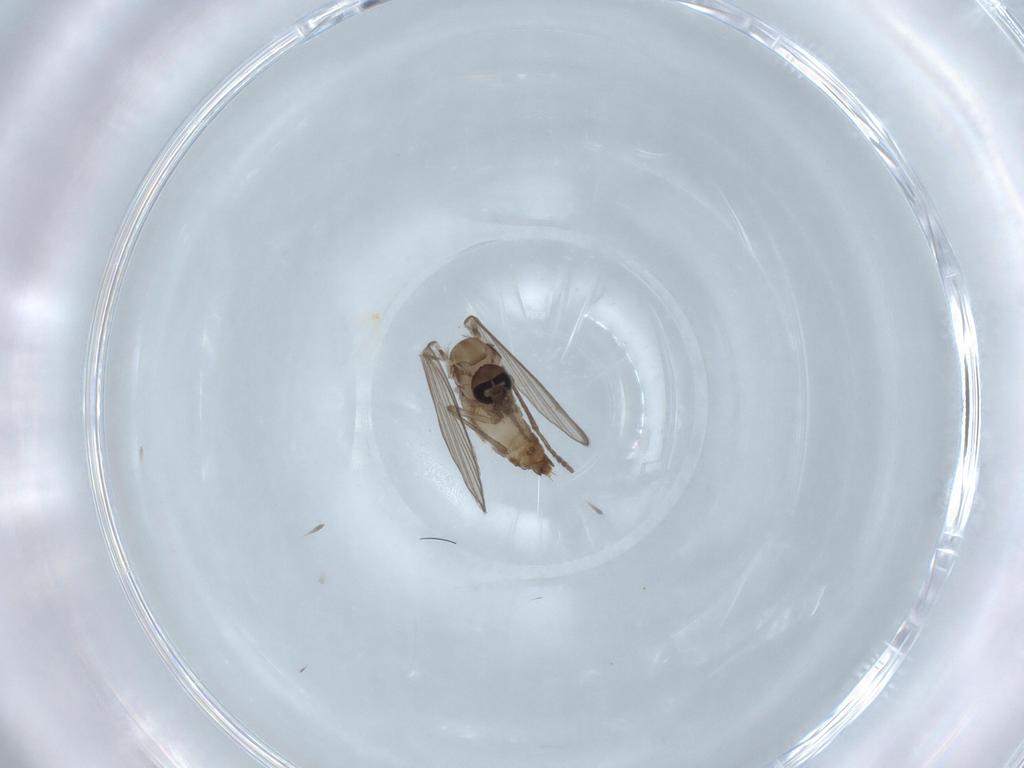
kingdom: Animalia
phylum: Arthropoda
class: Insecta
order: Diptera
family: Psychodidae
